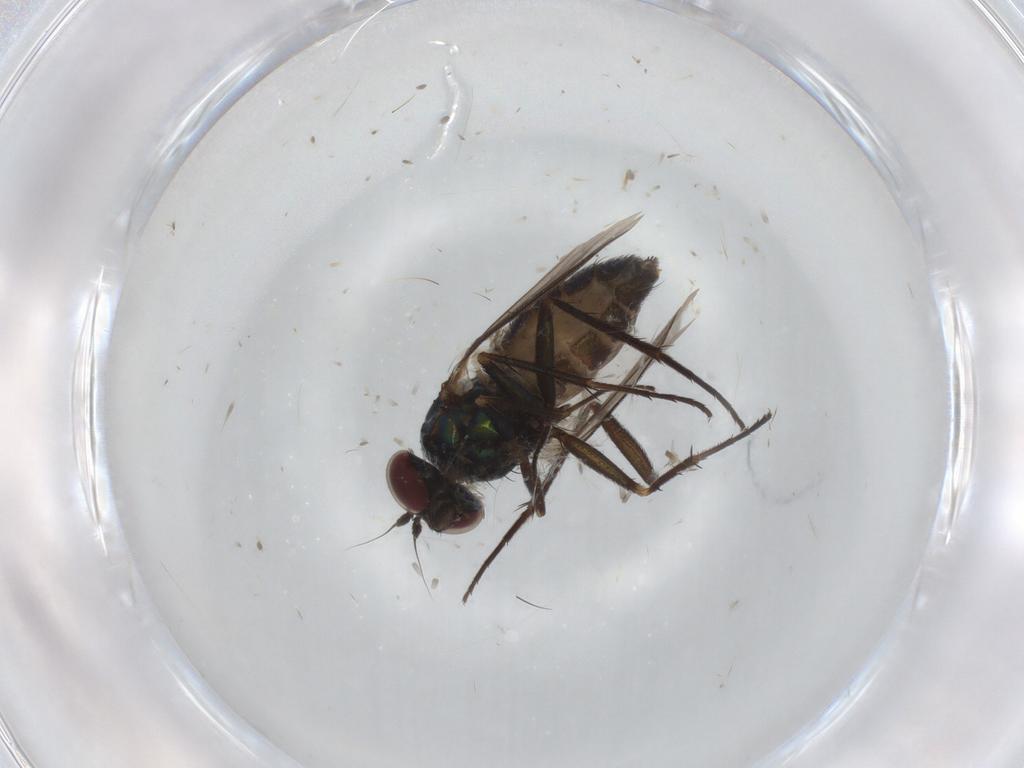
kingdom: Animalia
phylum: Arthropoda
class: Insecta
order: Diptera
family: Dolichopodidae
